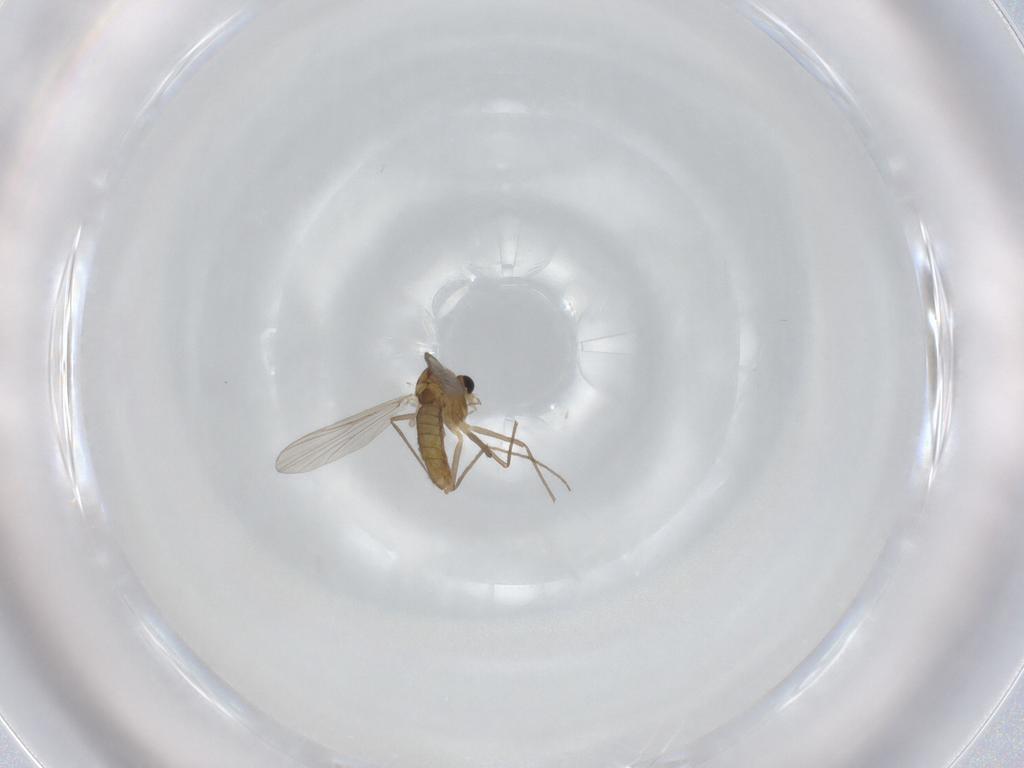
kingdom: Animalia
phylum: Arthropoda
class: Insecta
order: Diptera
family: Chironomidae
